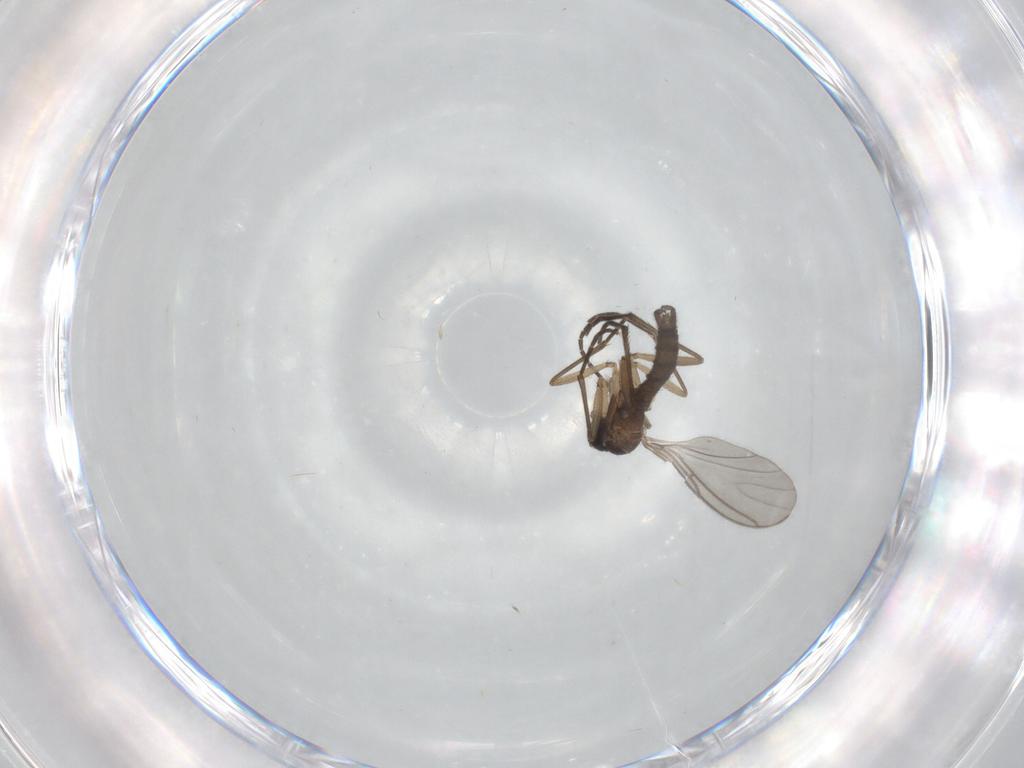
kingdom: Animalia
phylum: Arthropoda
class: Insecta
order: Diptera
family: Sciaridae
